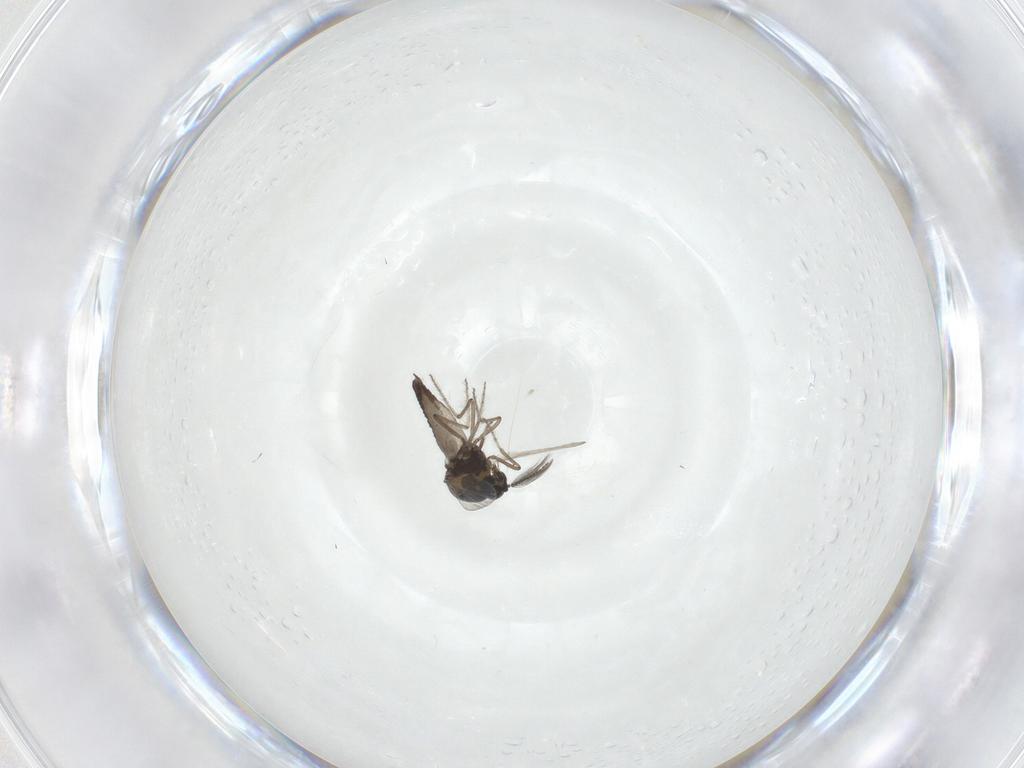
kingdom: Animalia
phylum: Arthropoda
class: Insecta
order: Diptera
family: Ceratopogonidae
